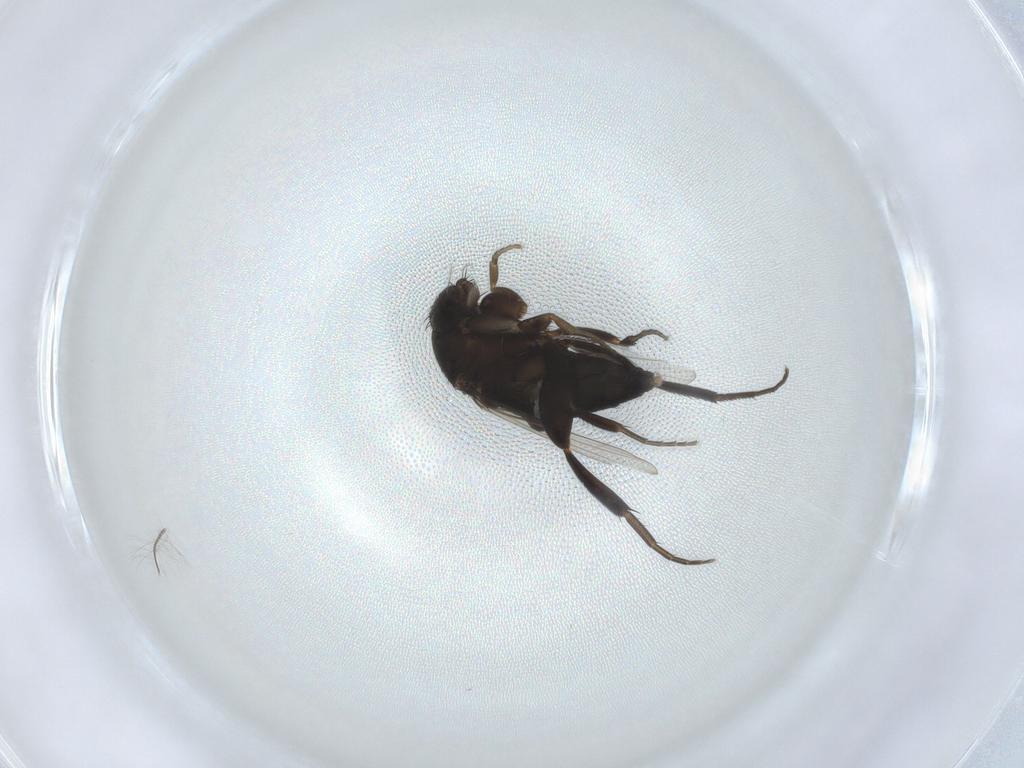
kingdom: Animalia
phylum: Arthropoda
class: Insecta
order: Diptera
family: Phoridae
